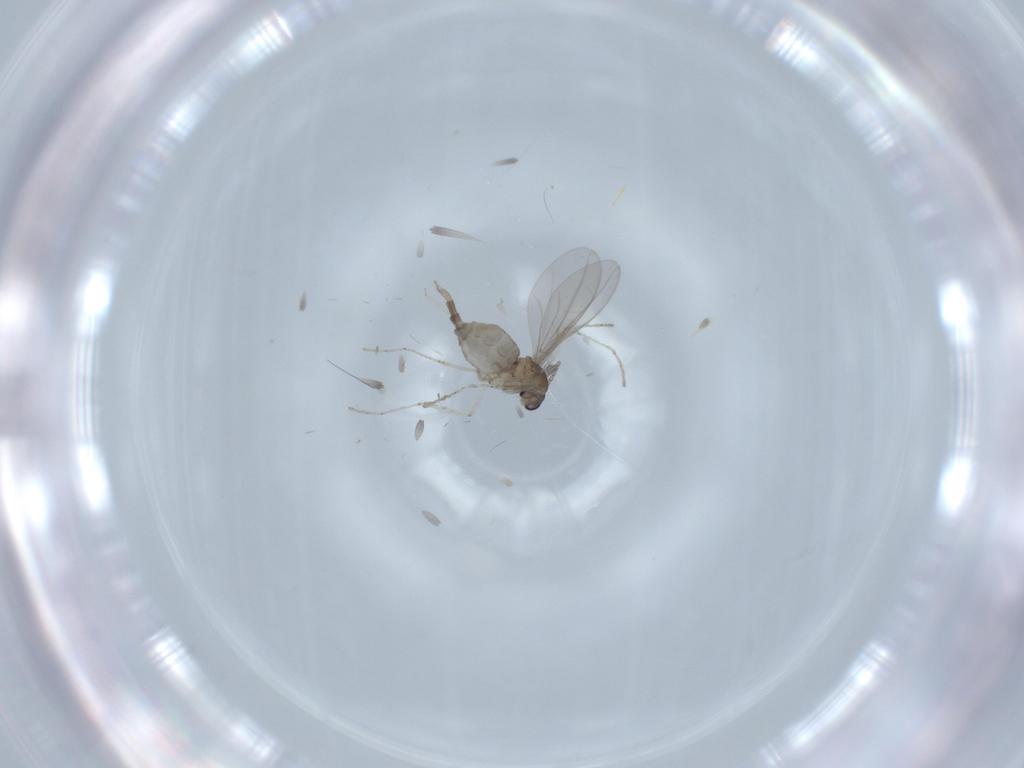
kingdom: Animalia
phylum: Arthropoda
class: Insecta
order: Diptera
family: Cecidomyiidae
